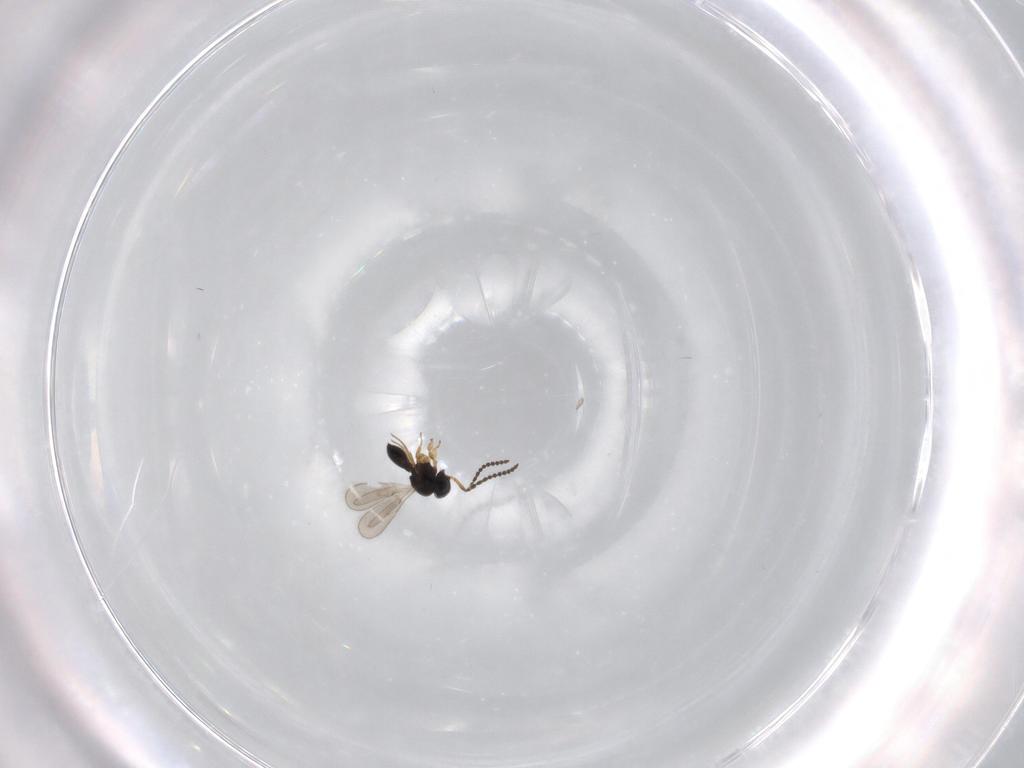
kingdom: Animalia
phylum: Arthropoda
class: Insecta
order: Hymenoptera
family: Scelionidae
